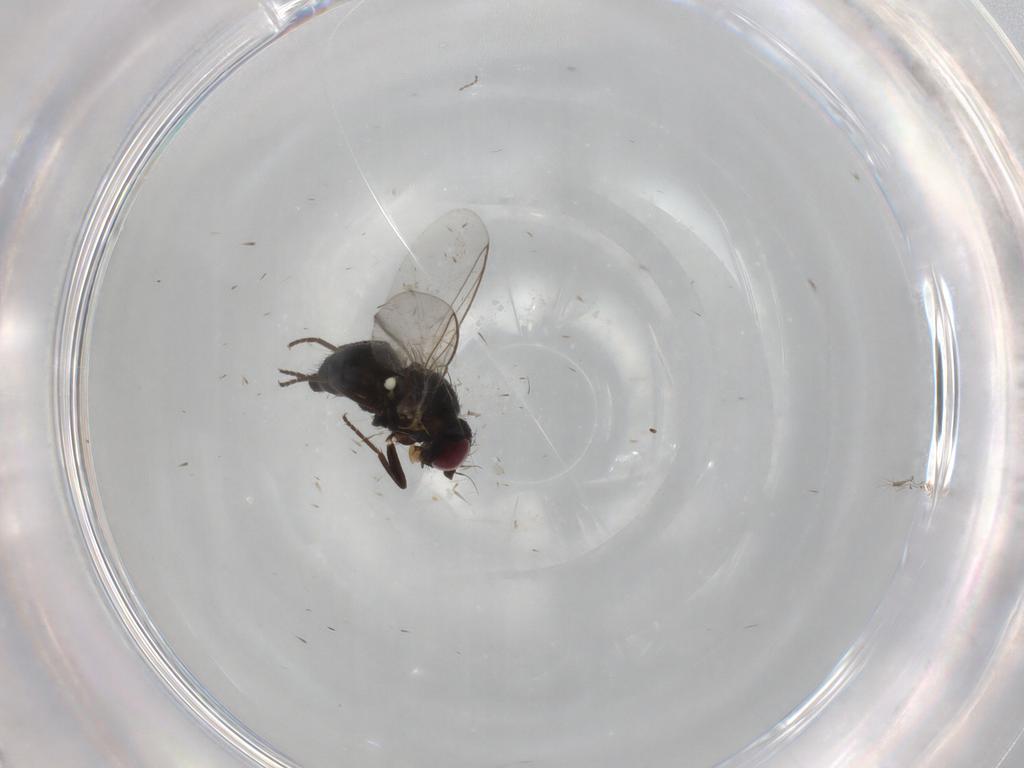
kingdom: Animalia
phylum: Arthropoda
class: Insecta
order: Diptera
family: Agromyzidae
